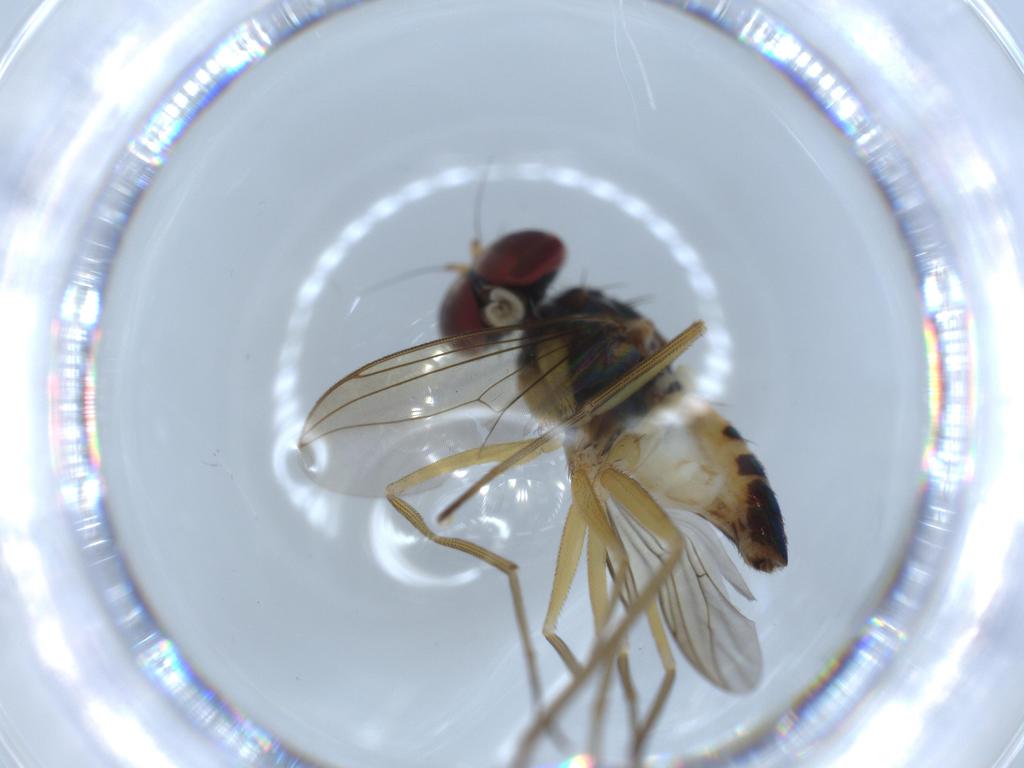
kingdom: Animalia
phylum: Arthropoda
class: Insecta
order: Diptera
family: Dolichopodidae
